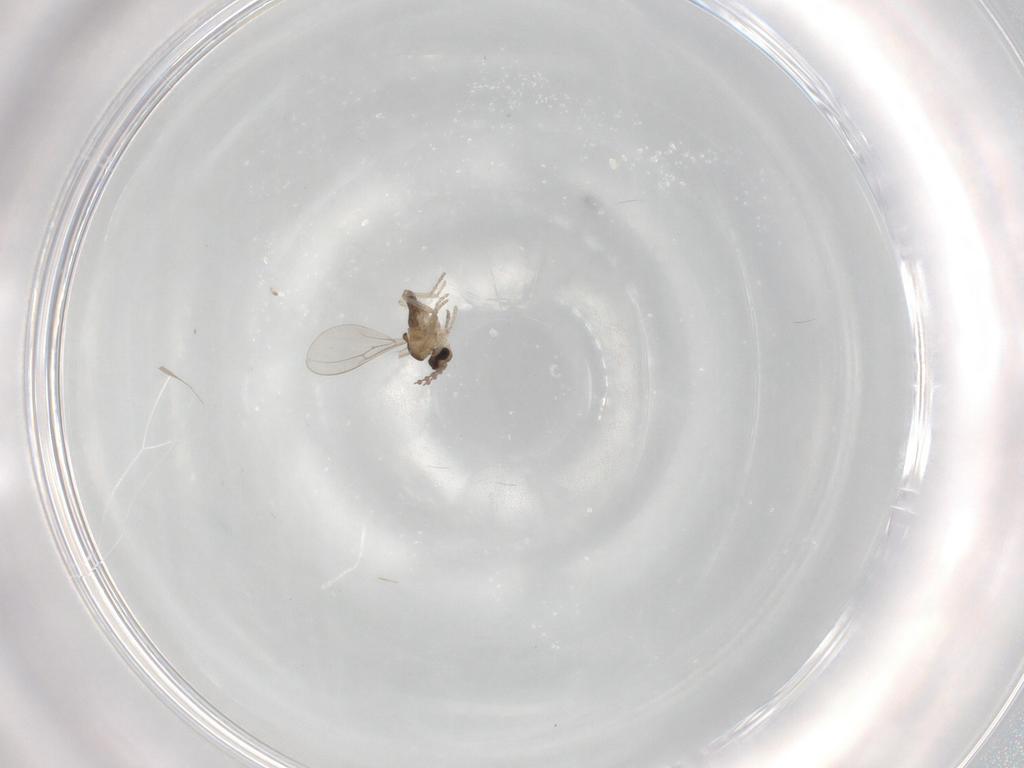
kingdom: Animalia
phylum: Arthropoda
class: Insecta
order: Diptera
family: Cecidomyiidae
